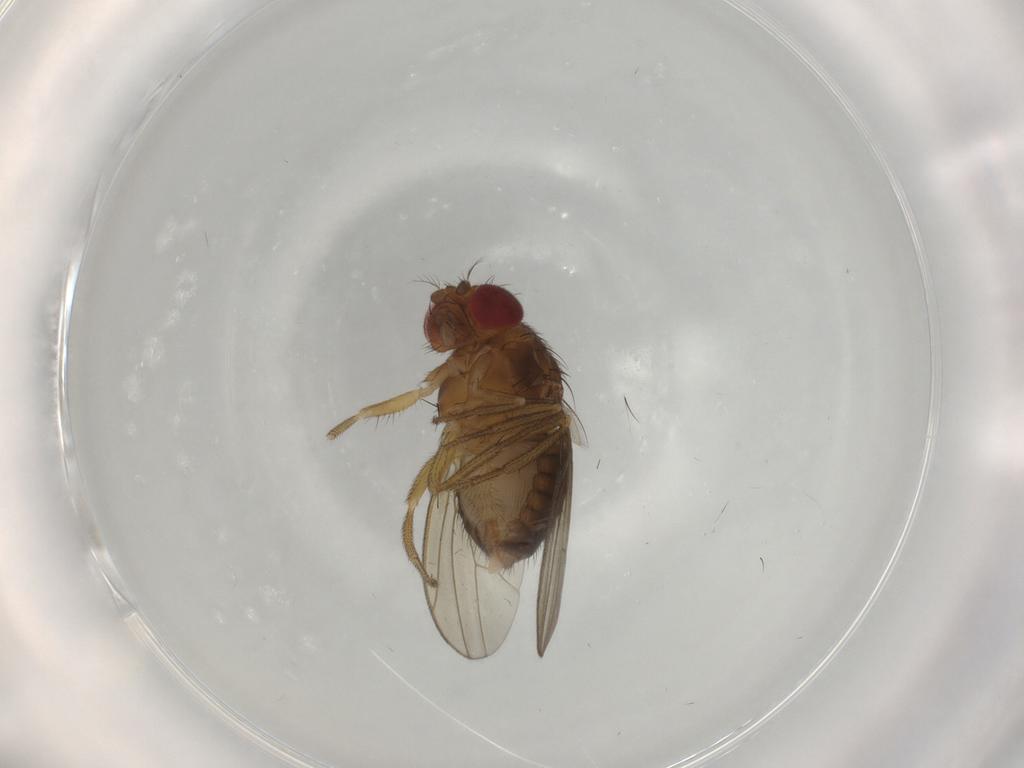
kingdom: Animalia
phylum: Arthropoda
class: Insecta
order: Diptera
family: Drosophilidae
